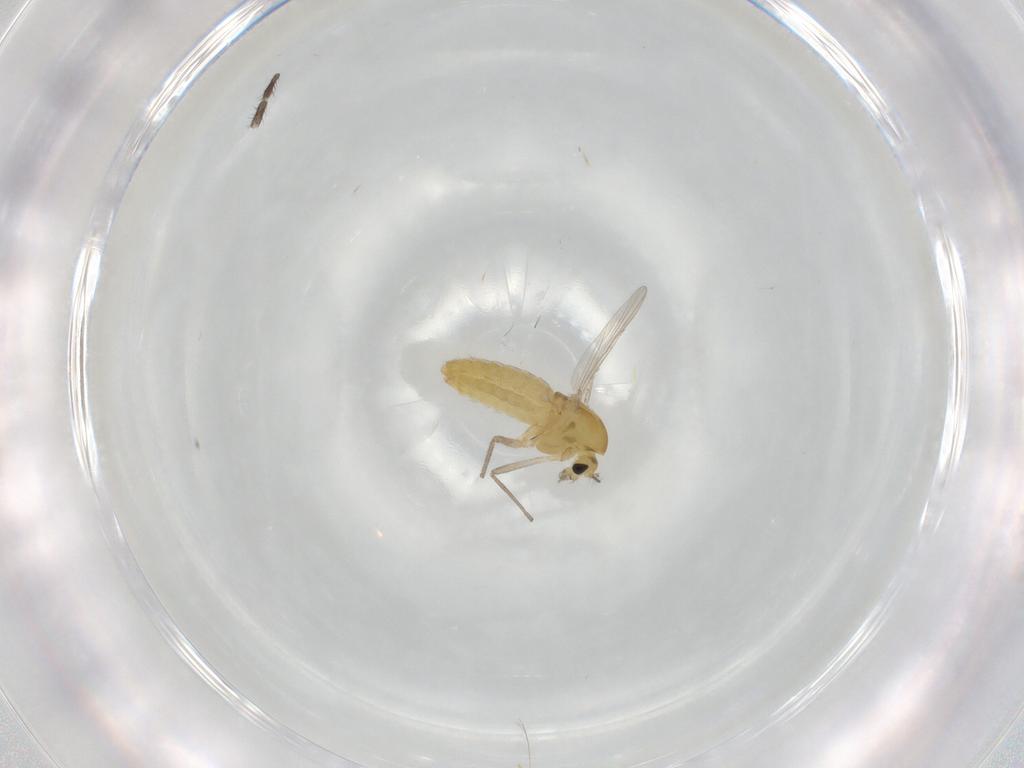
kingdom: Animalia
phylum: Arthropoda
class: Insecta
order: Diptera
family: Chironomidae
